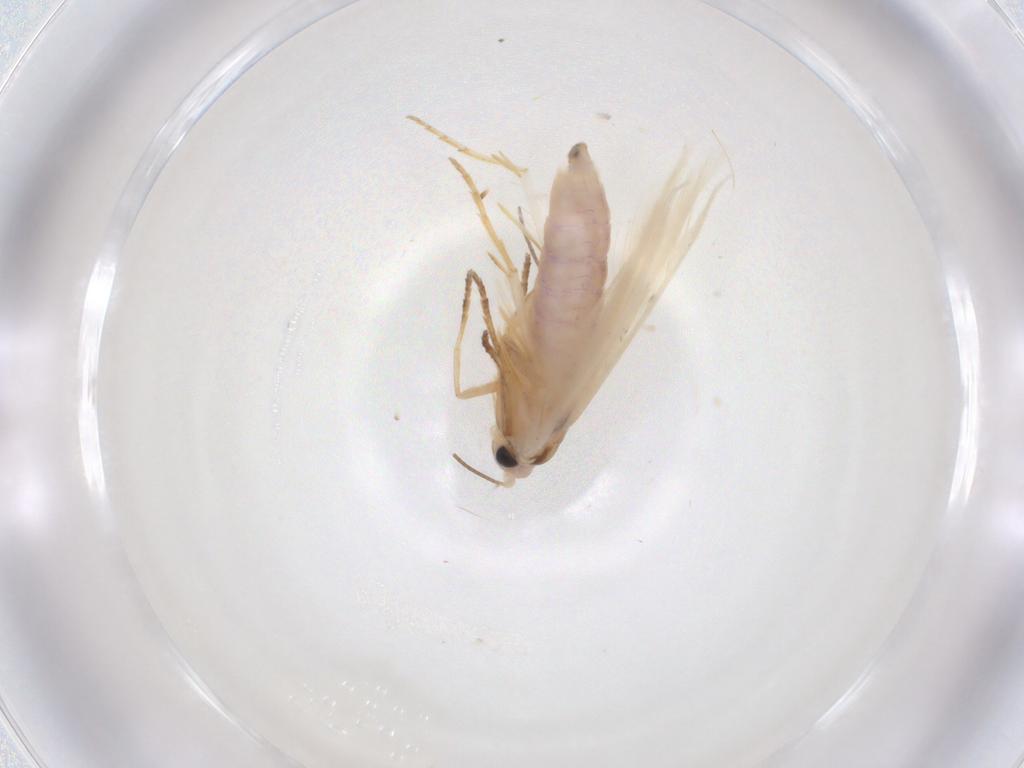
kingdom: Animalia
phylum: Arthropoda
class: Insecta
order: Lepidoptera
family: Gelechiidae
